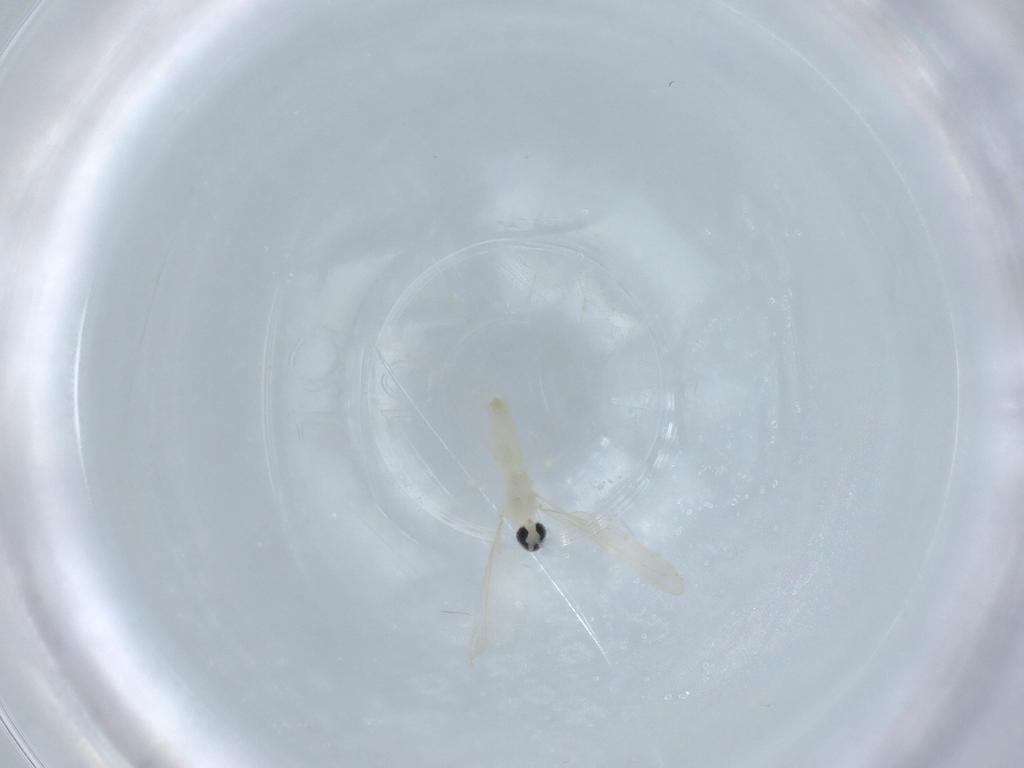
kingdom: Animalia
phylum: Arthropoda
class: Insecta
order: Diptera
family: Cecidomyiidae
